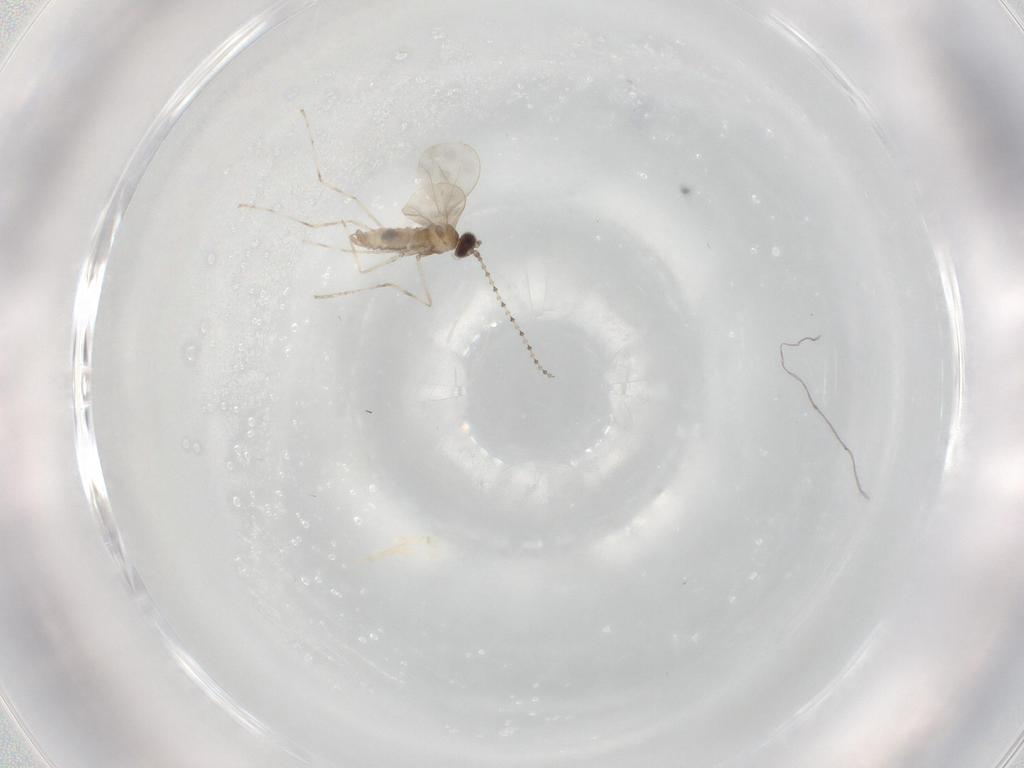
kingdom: Animalia
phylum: Arthropoda
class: Insecta
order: Diptera
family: Cecidomyiidae
